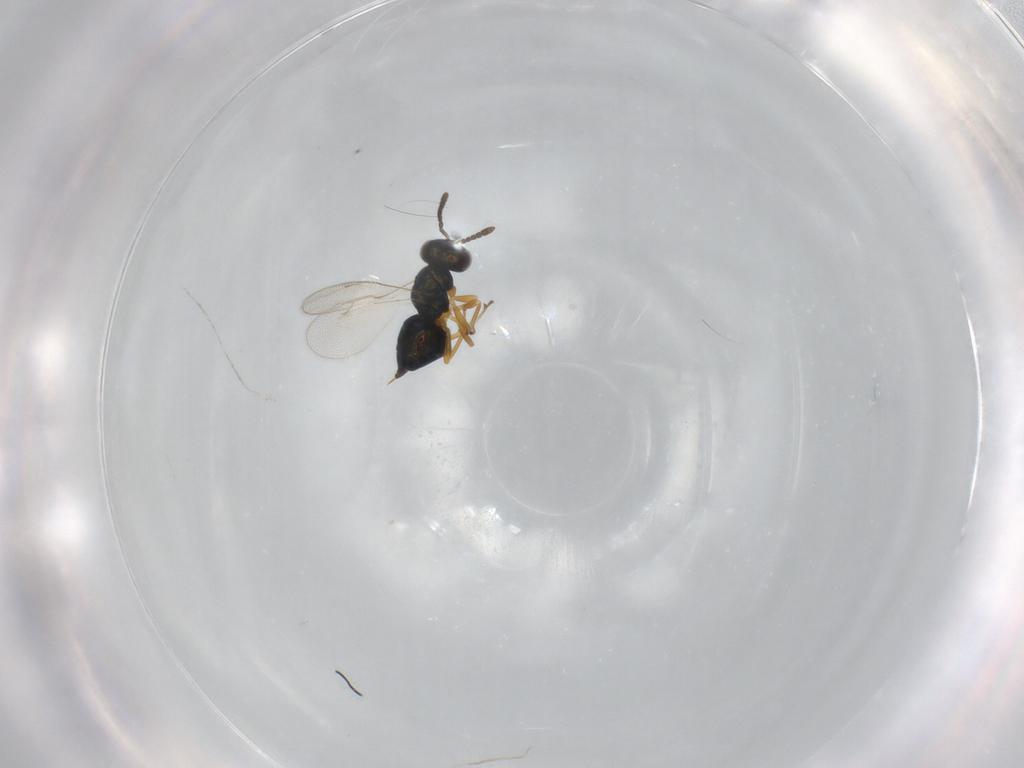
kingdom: Animalia
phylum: Arthropoda
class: Insecta
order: Hymenoptera
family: Pteromalidae
